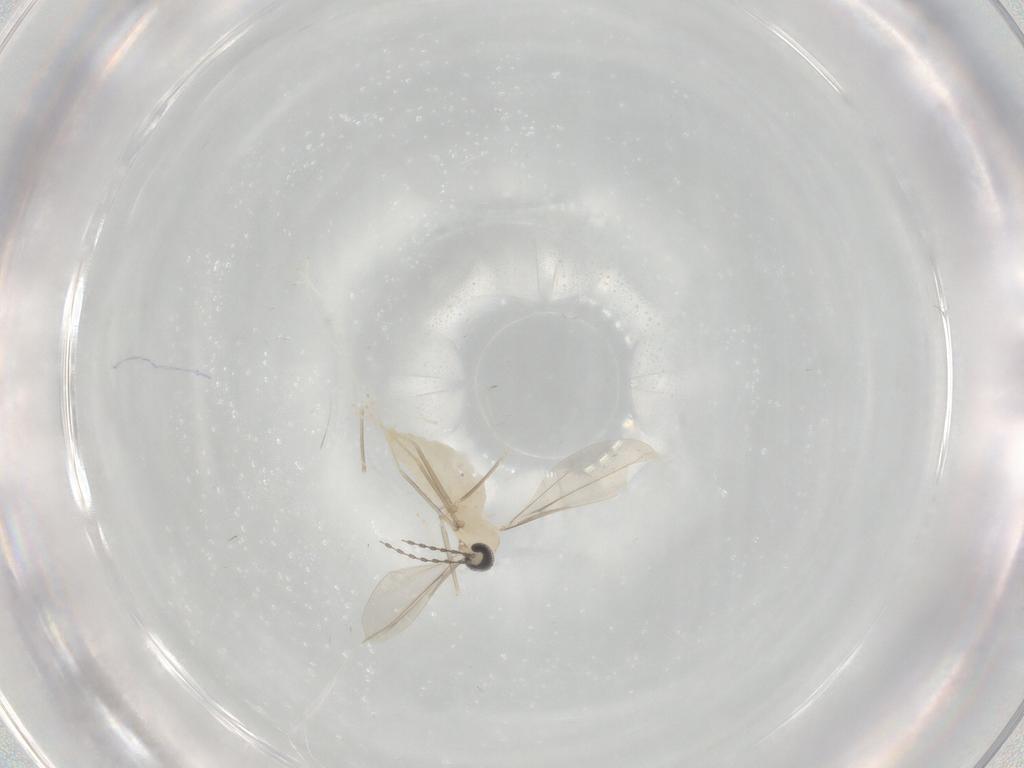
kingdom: Animalia
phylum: Arthropoda
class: Insecta
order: Diptera
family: Cecidomyiidae
